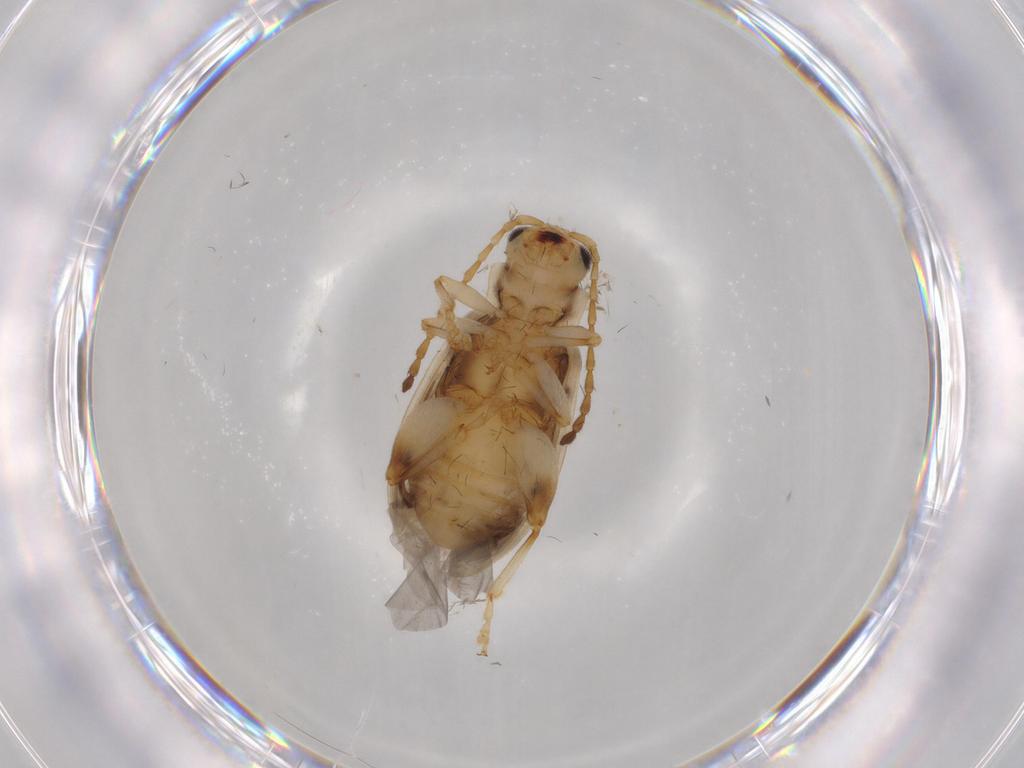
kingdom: Animalia
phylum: Arthropoda
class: Insecta
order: Coleoptera
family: Chrysomelidae
